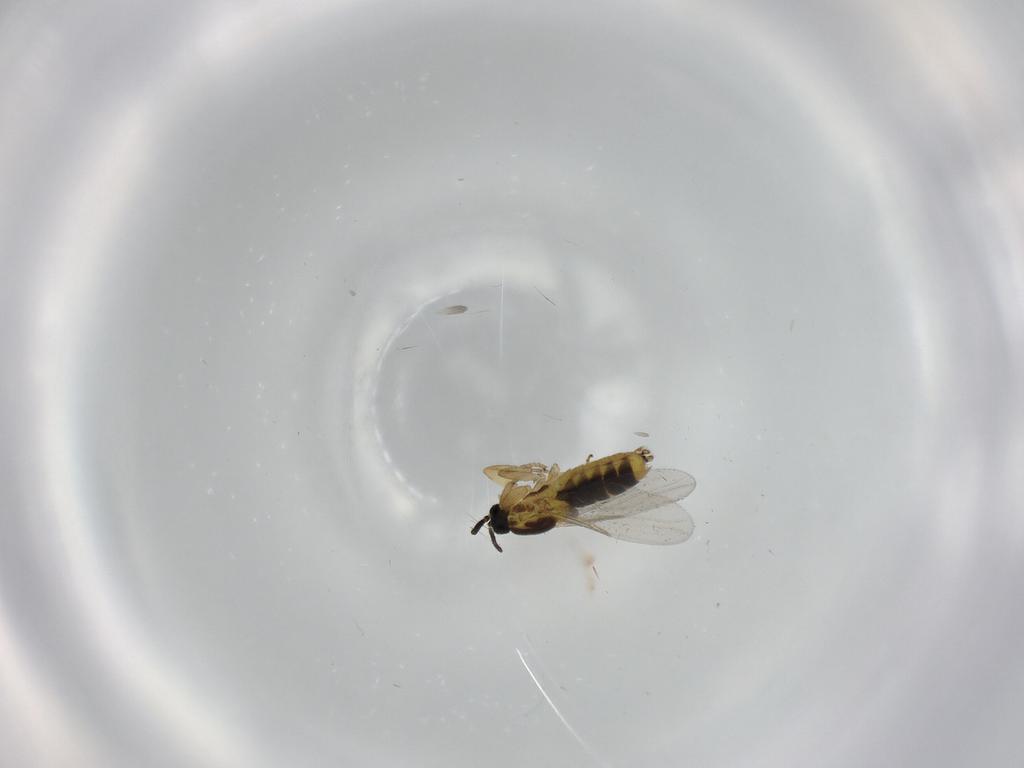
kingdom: Animalia
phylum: Arthropoda
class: Insecta
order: Diptera
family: Scatopsidae
